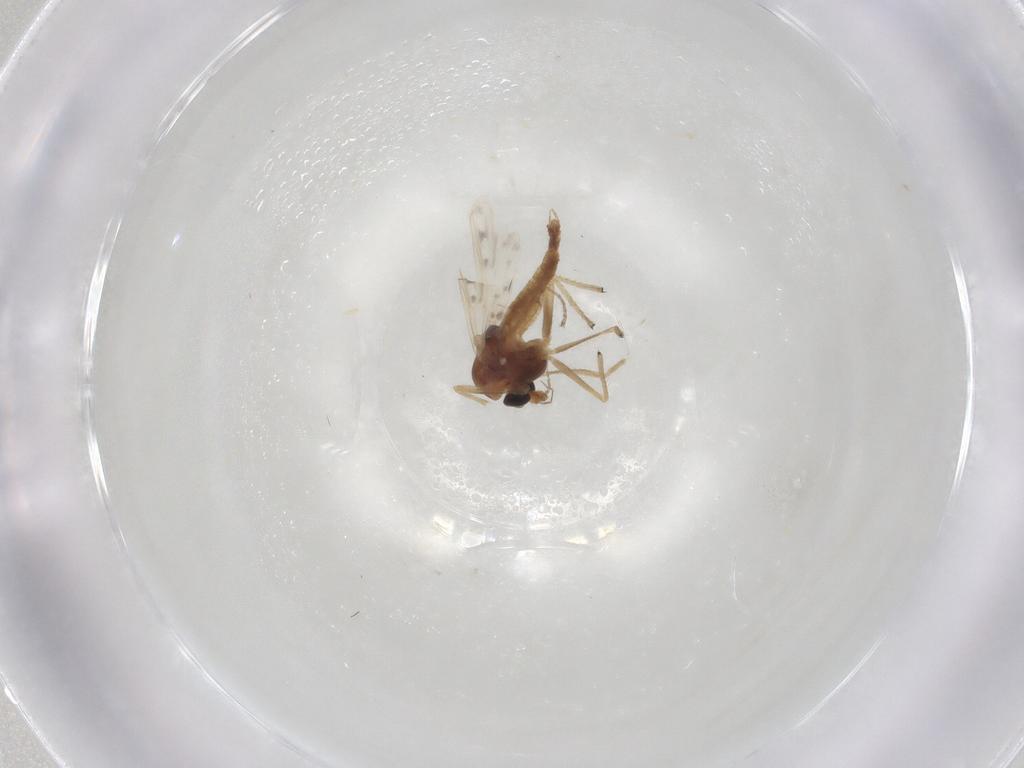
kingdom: Animalia
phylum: Arthropoda
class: Insecta
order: Diptera
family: Chironomidae
